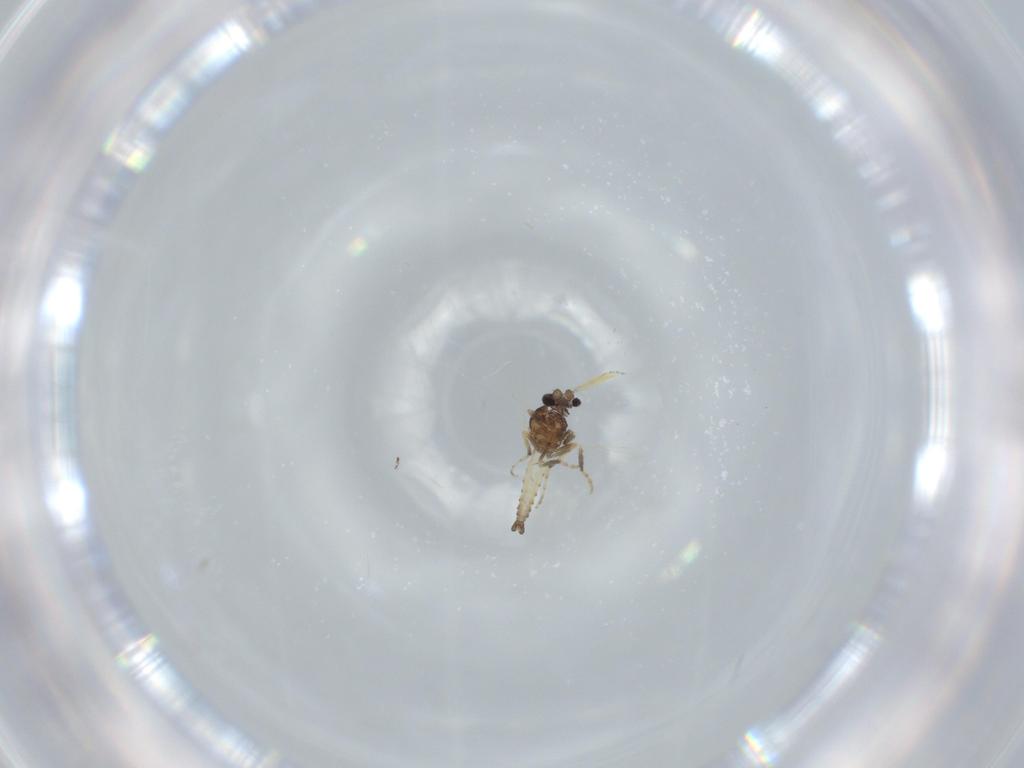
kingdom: Animalia
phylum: Arthropoda
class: Insecta
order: Diptera
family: Ceratopogonidae
